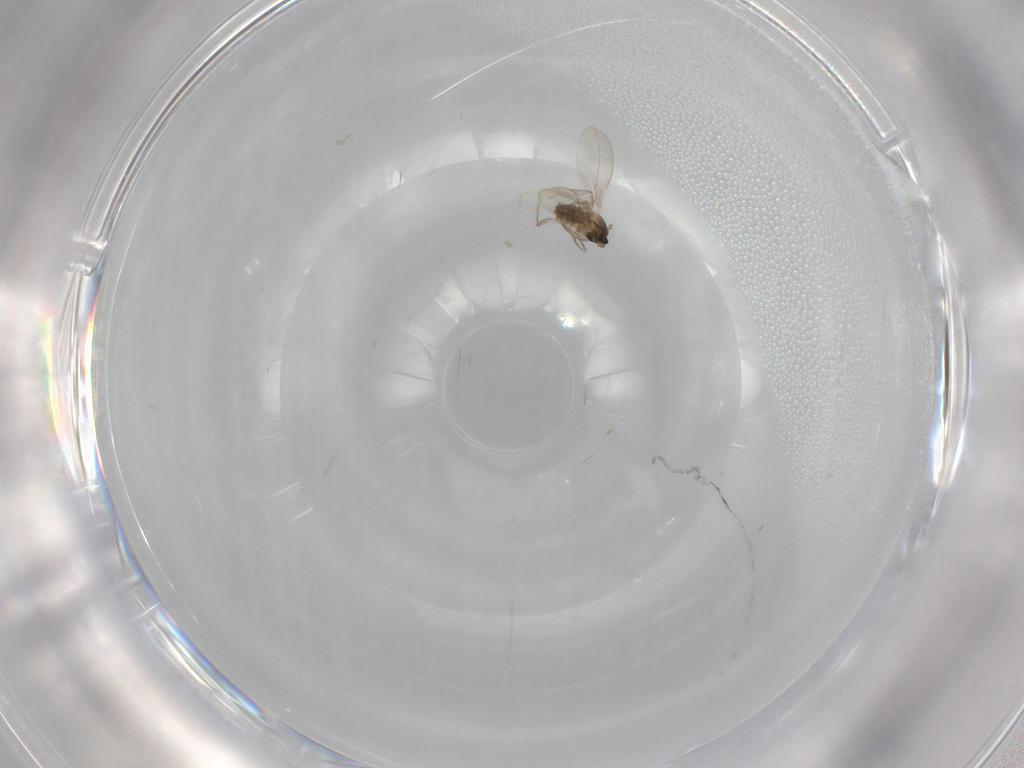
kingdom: Animalia
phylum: Arthropoda
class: Insecta
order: Diptera
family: Cecidomyiidae
